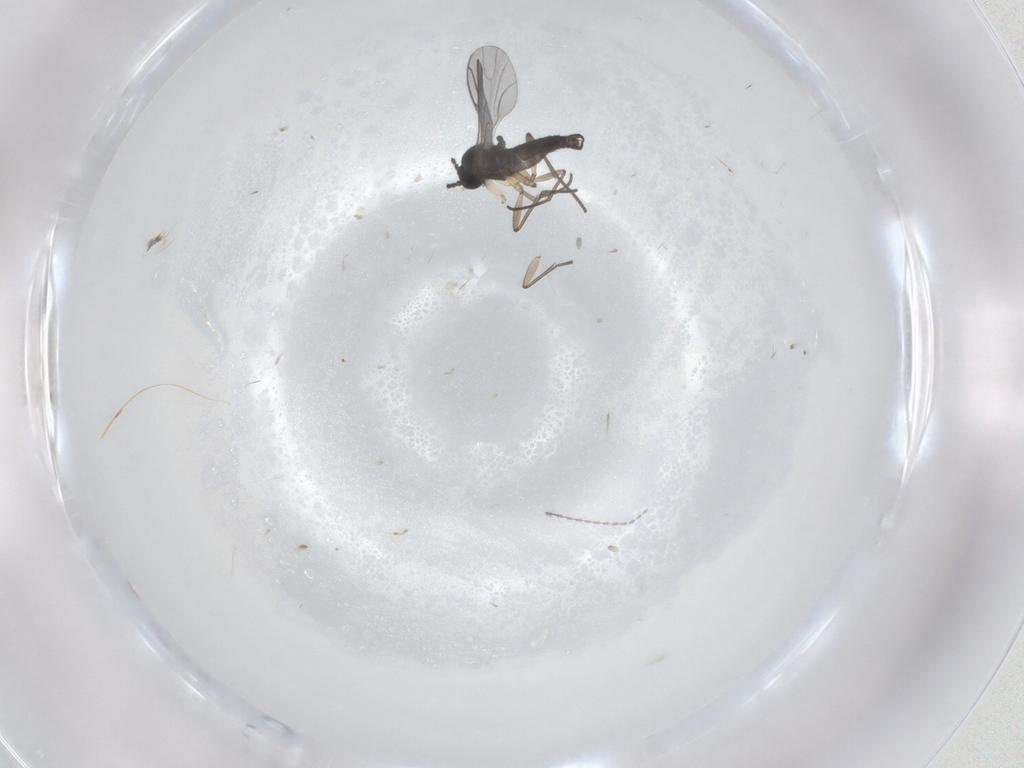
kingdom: Animalia
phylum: Arthropoda
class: Insecta
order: Diptera
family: Sciaridae
